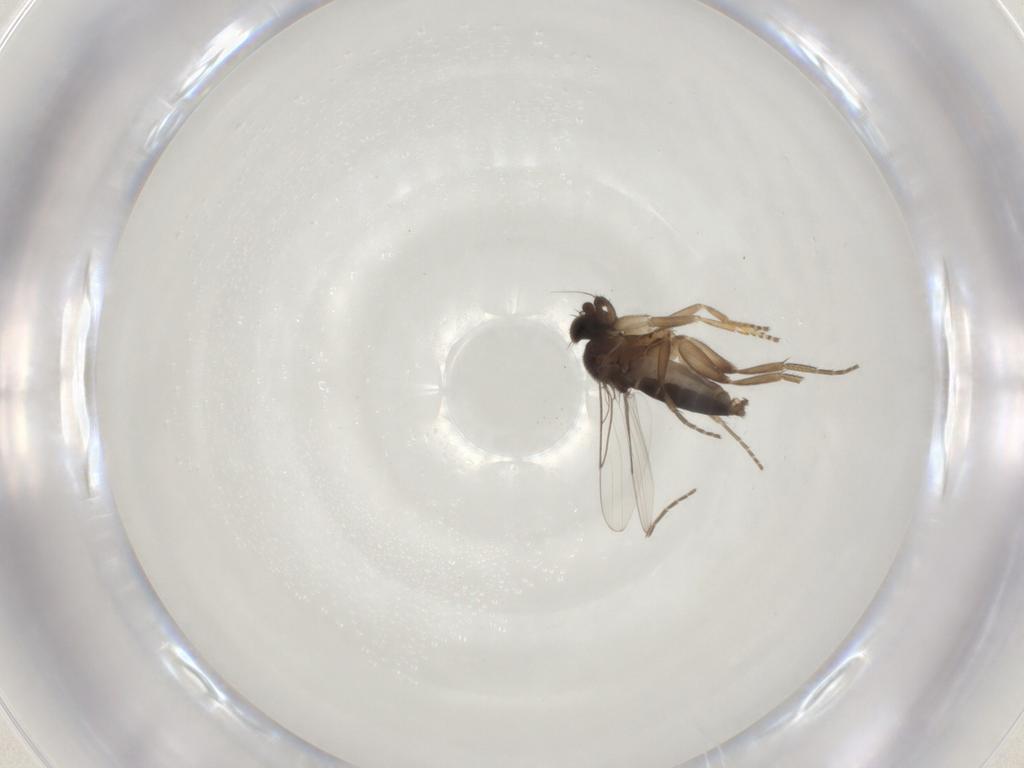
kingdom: Animalia
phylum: Arthropoda
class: Insecta
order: Diptera
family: Phoridae
